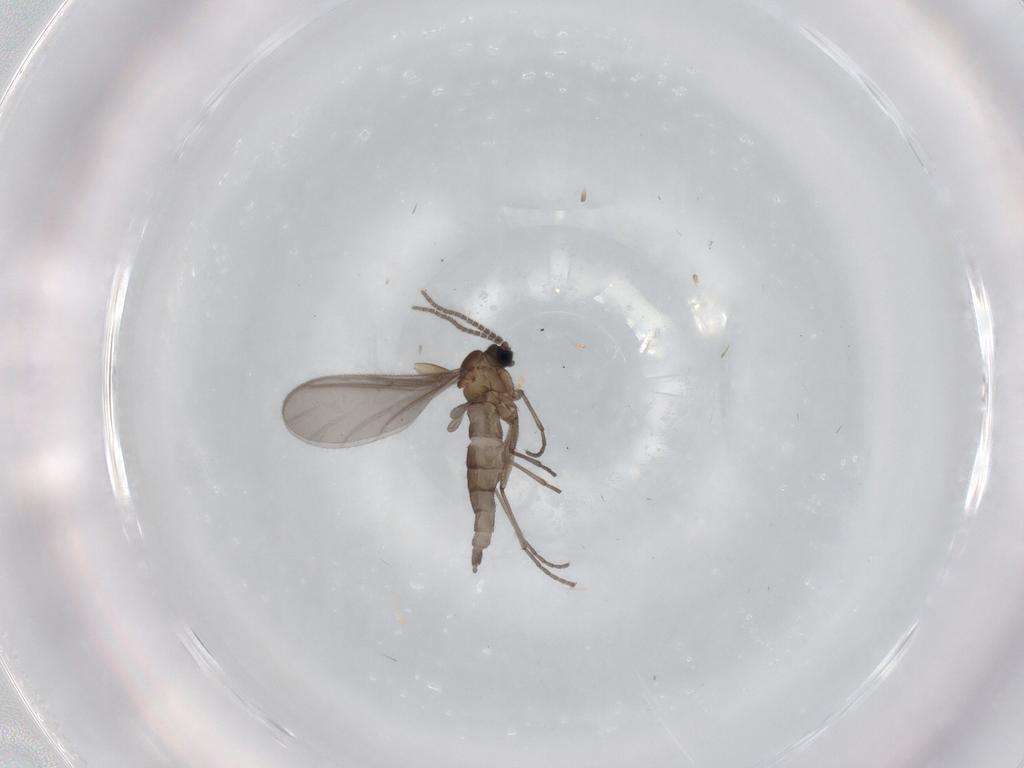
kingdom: Animalia
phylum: Arthropoda
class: Insecta
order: Diptera
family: Sciaridae
